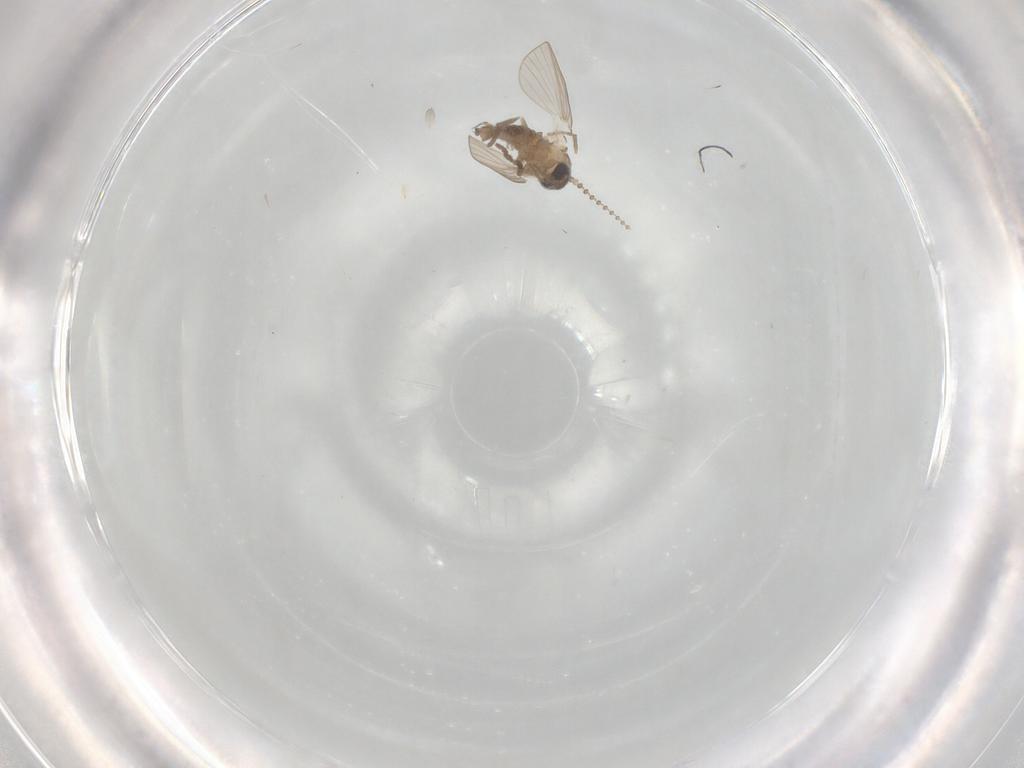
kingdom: Animalia
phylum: Arthropoda
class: Insecta
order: Diptera
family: Psychodidae
